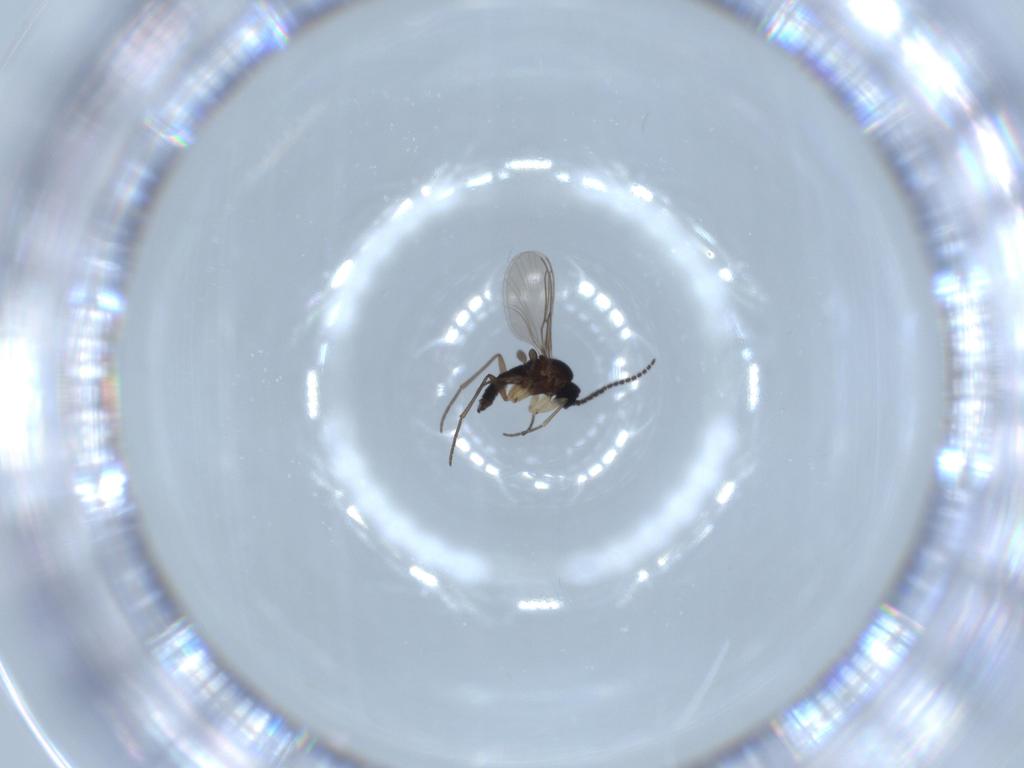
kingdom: Animalia
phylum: Arthropoda
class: Insecta
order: Diptera
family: Sciaridae
